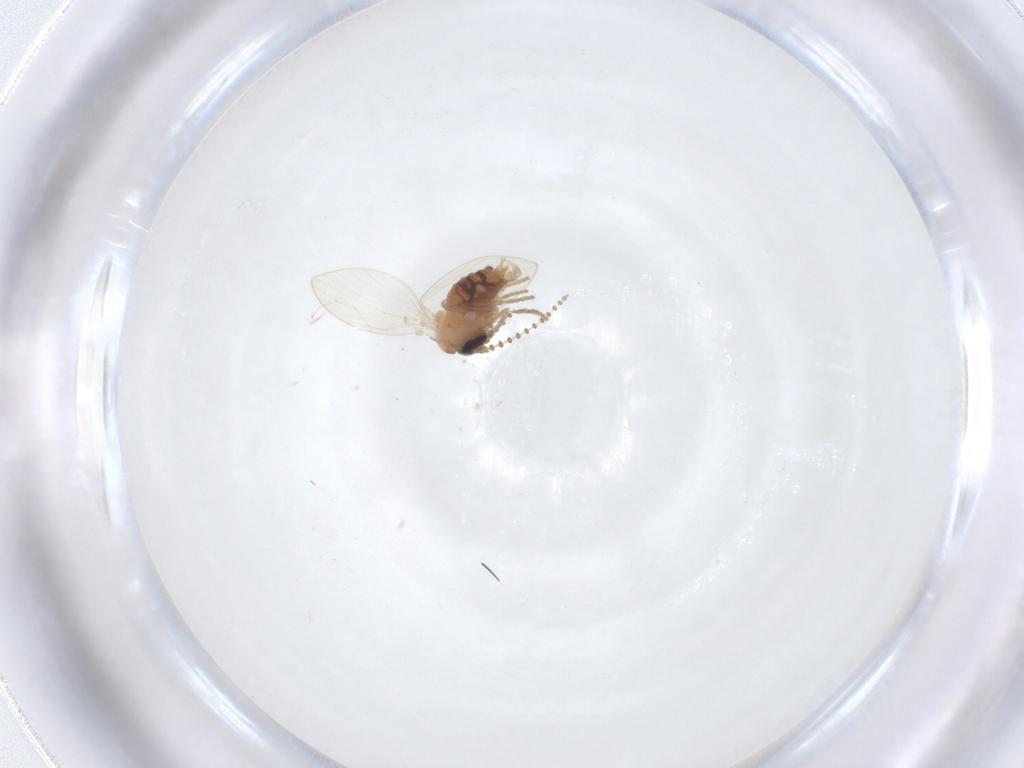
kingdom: Animalia
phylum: Arthropoda
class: Insecta
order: Diptera
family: Psychodidae
